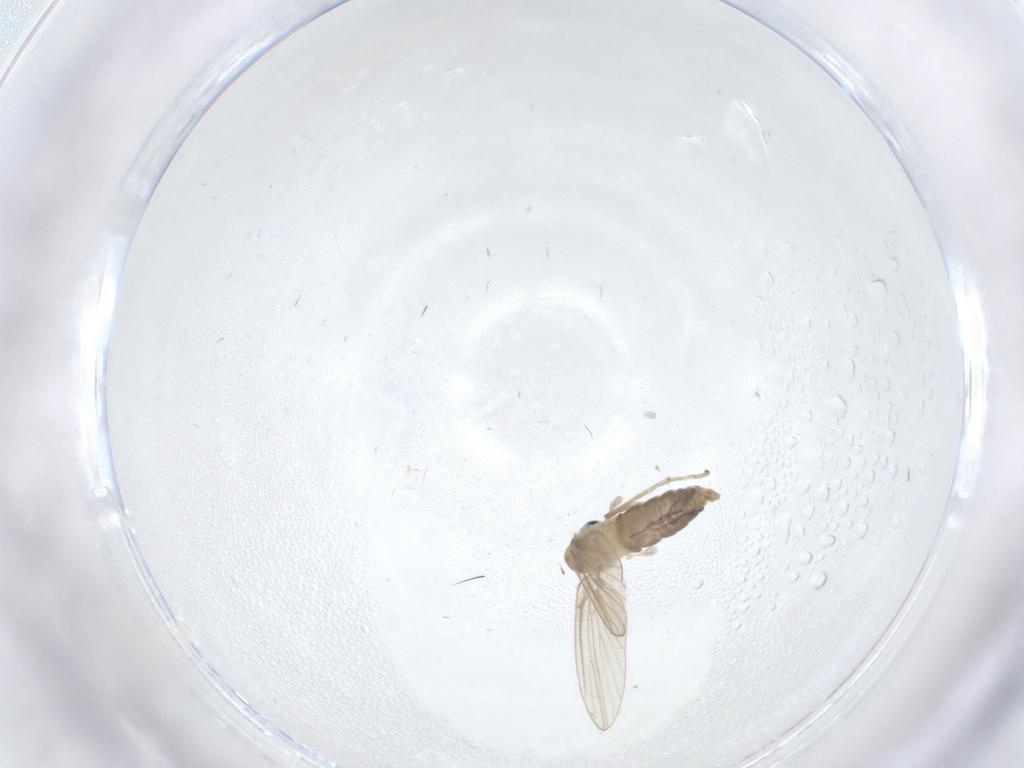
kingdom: Animalia
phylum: Arthropoda
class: Insecta
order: Diptera
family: Psychodidae
